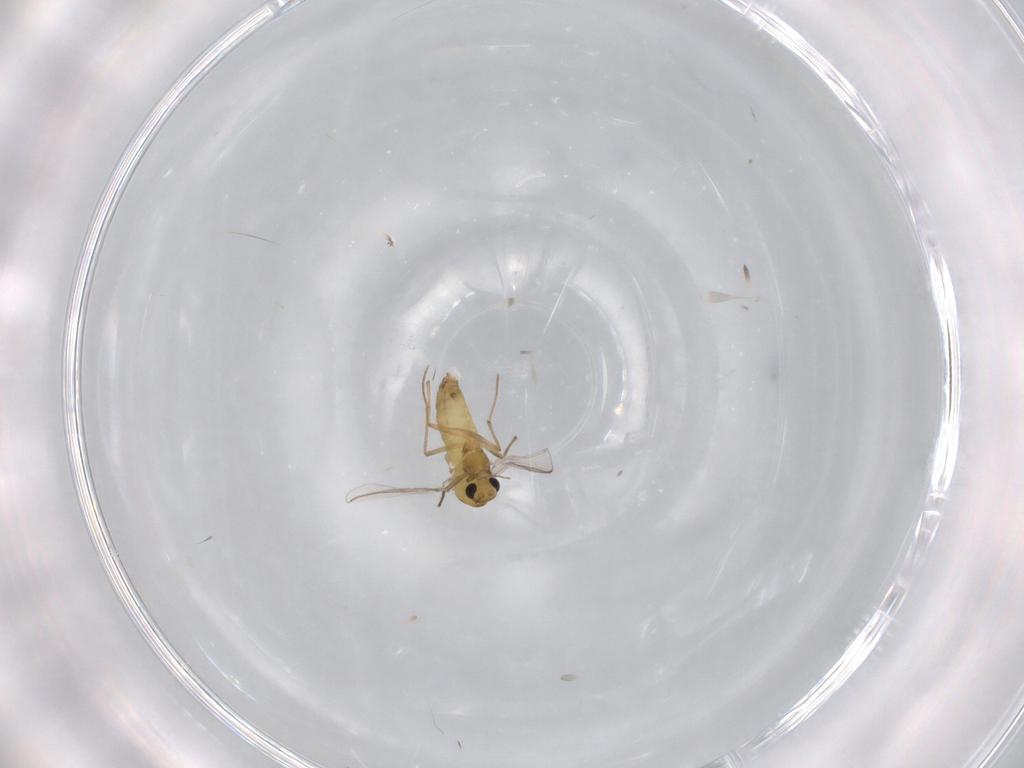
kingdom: Animalia
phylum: Arthropoda
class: Insecta
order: Diptera
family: Chironomidae
